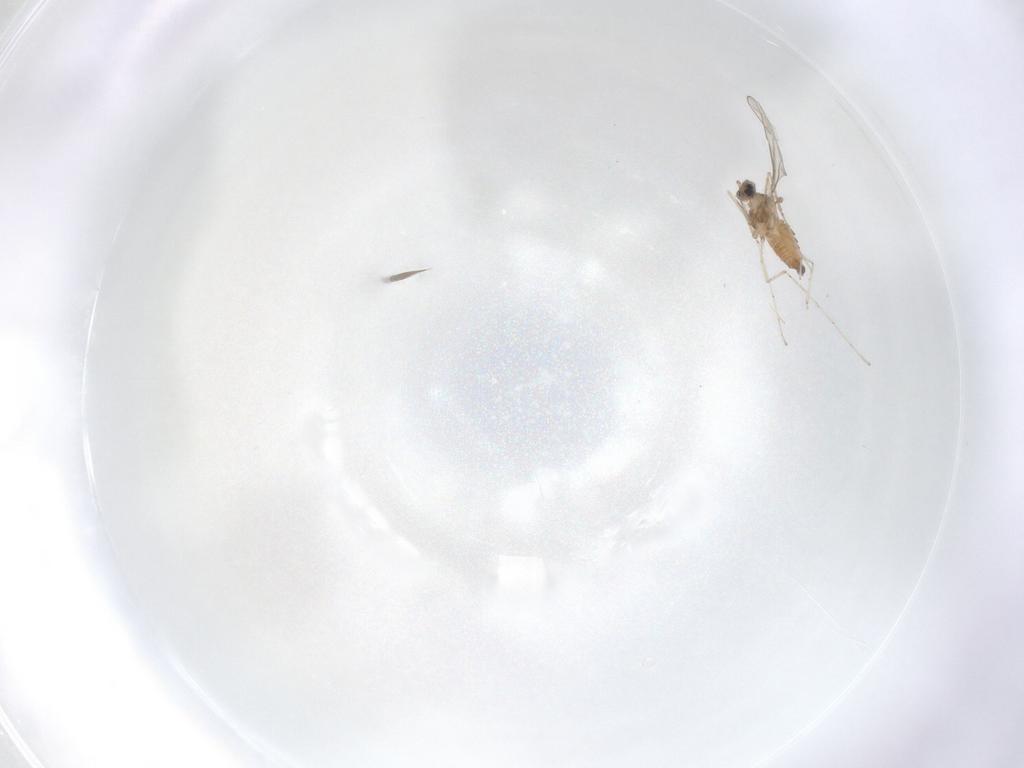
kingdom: Animalia
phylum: Arthropoda
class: Insecta
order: Diptera
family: Cecidomyiidae
